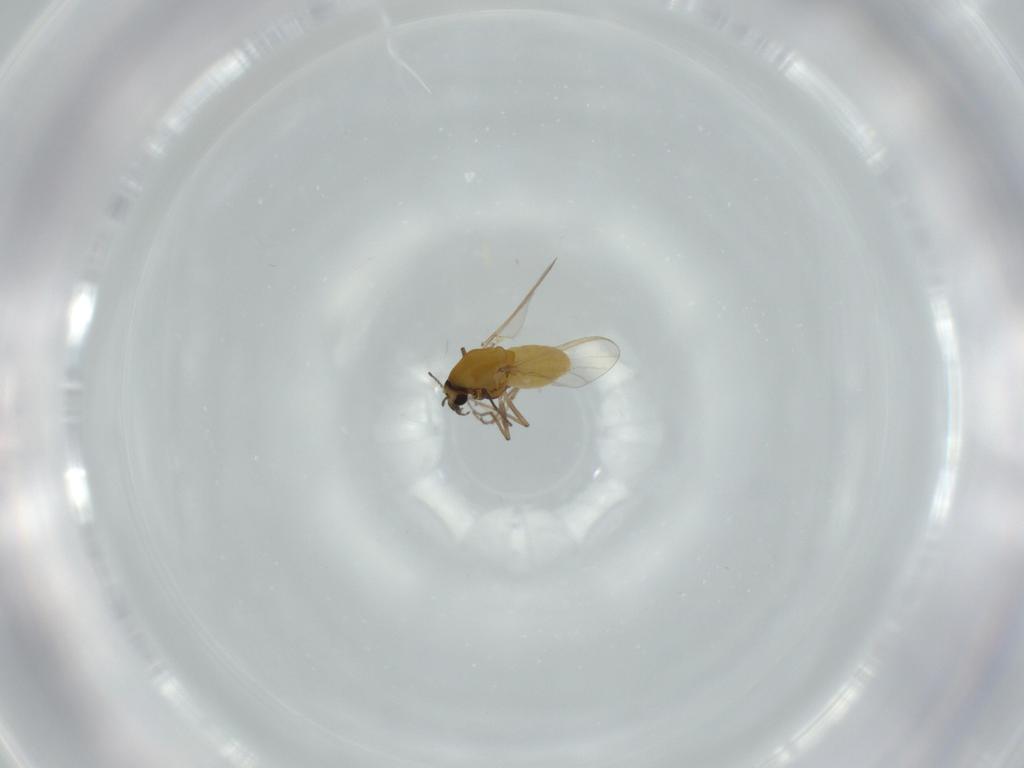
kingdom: Animalia
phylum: Arthropoda
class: Insecta
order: Diptera
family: Chironomidae
